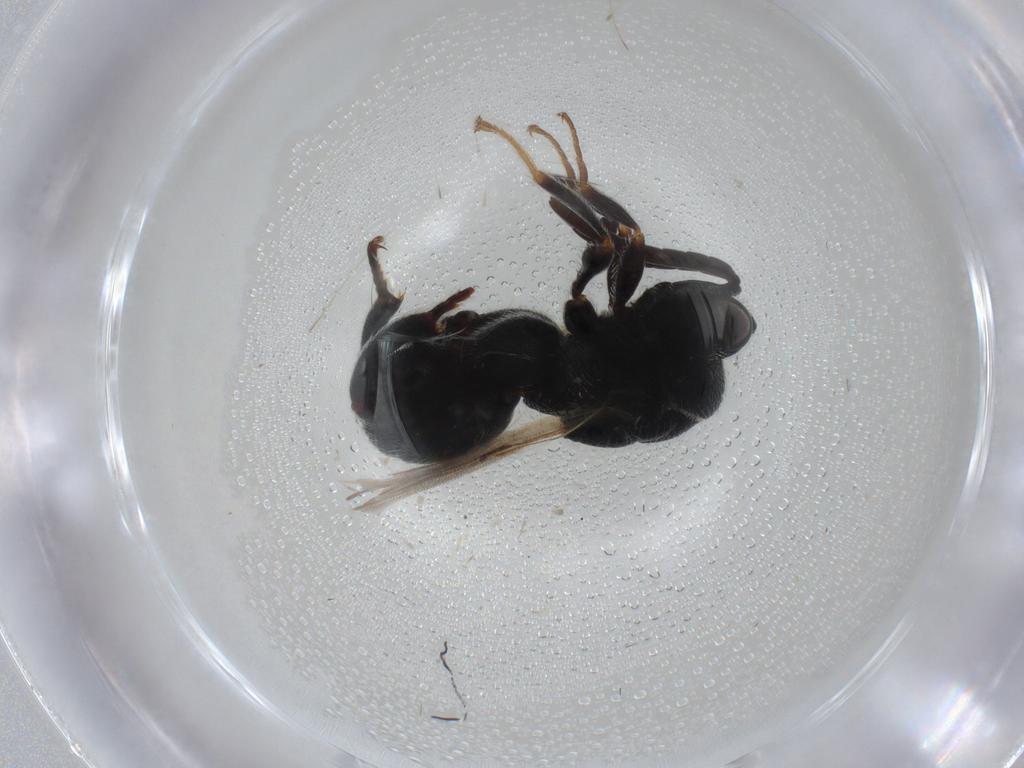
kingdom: Animalia
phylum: Arthropoda
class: Insecta
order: Hymenoptera
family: Chalcididae
